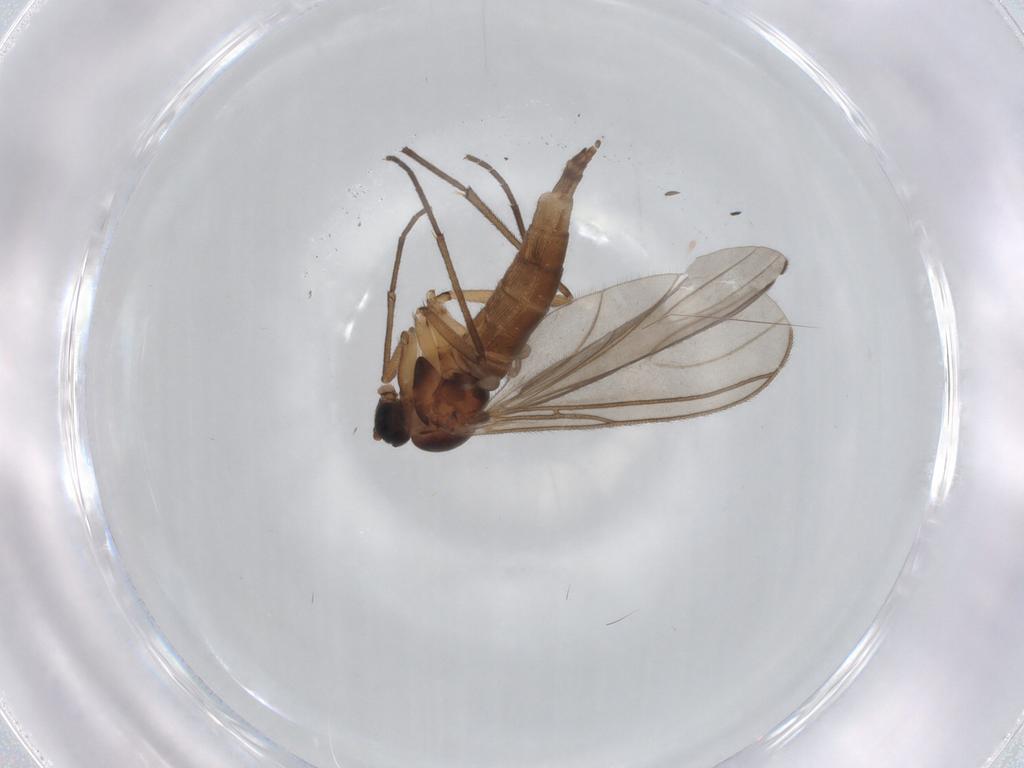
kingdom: Animalia
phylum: Arthropoda
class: Insecta
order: Diptera
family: Sciaridae
